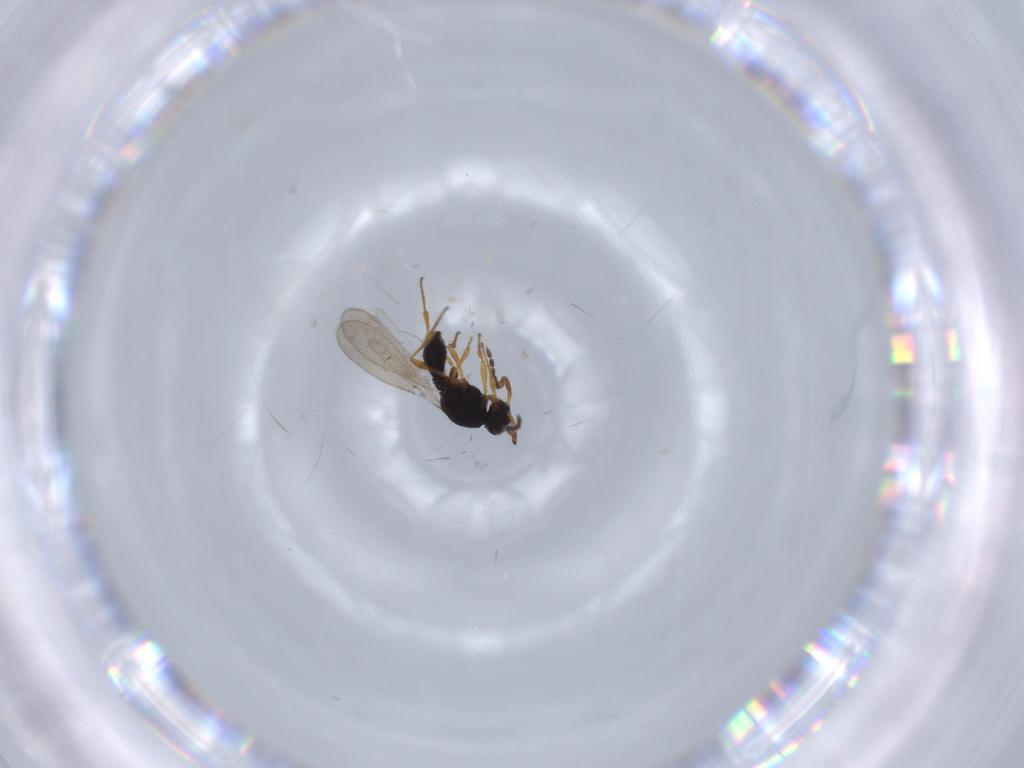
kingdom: Animalia
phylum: Arthropoda
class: Insecta
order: Diptera
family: Mythicomyiidae
